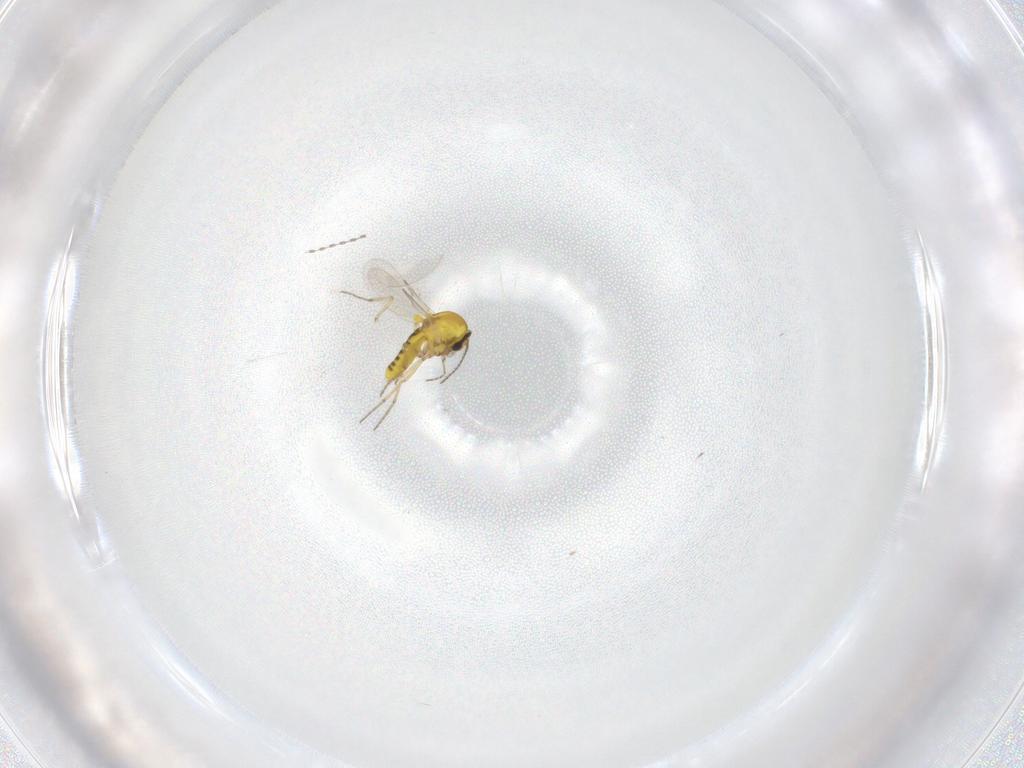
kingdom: Animalia
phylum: Arthropoda
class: Insecta
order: Diptera
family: Ceratopogonidae
